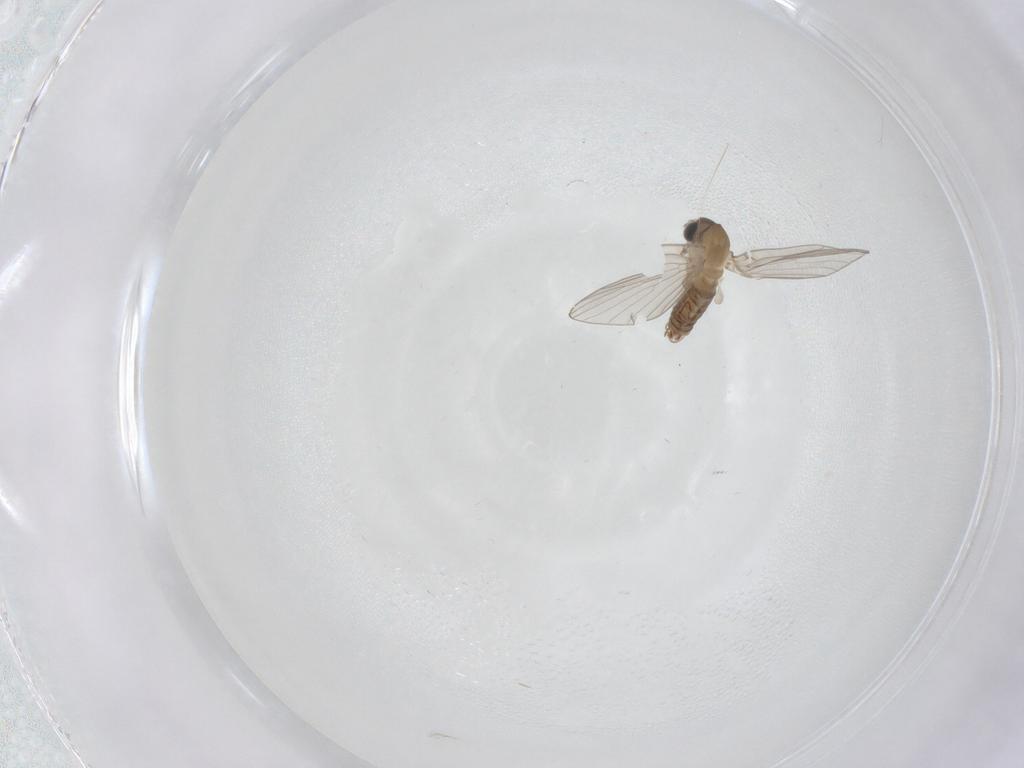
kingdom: Animalia
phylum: Arthropoda
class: Insecta
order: Diptera
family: Psychodidae
